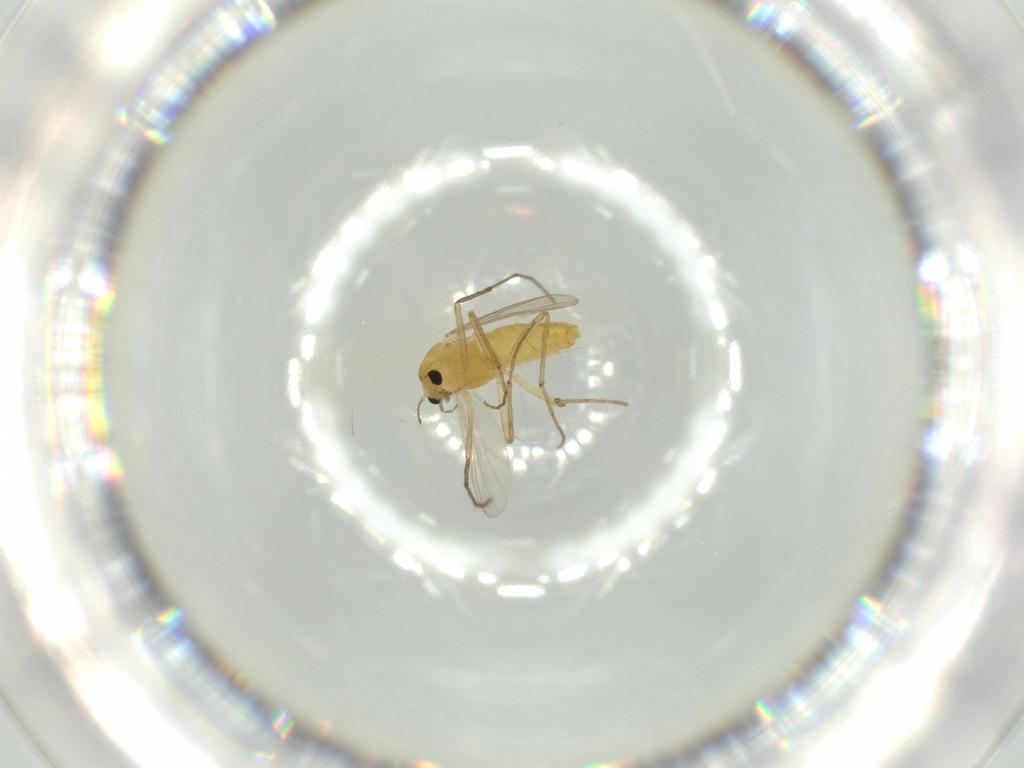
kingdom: Animalia
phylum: Arthropoda
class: Insecta
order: Diptera
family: Chironomidae
